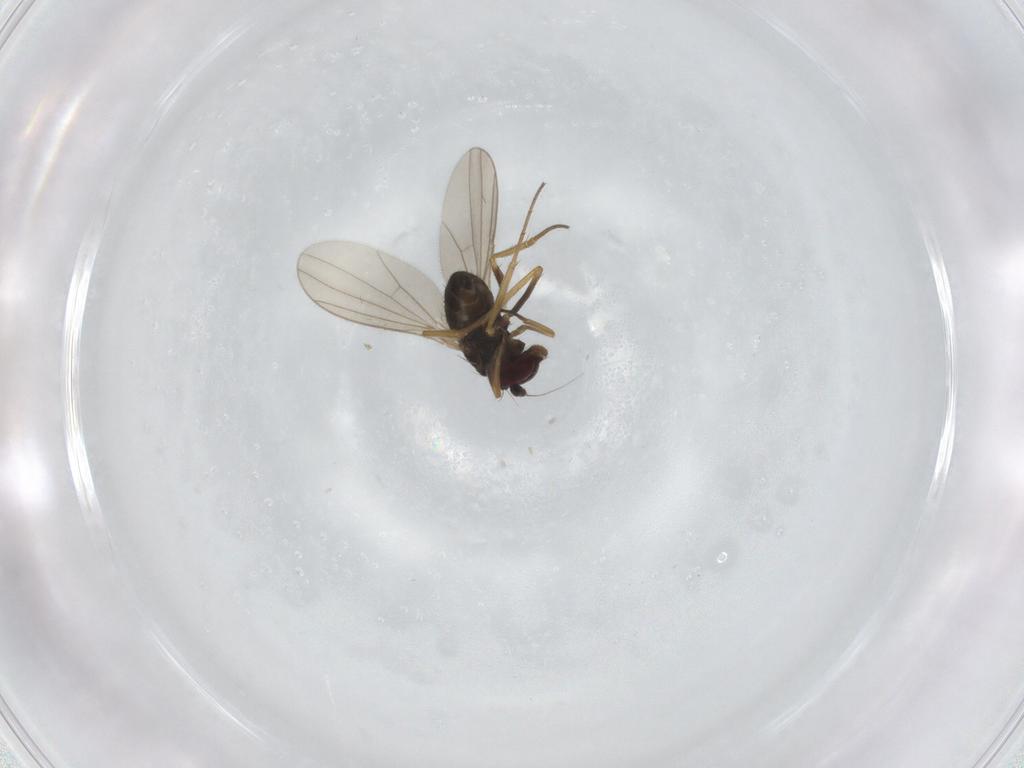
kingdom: Animalia
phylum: Arthropoda
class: Insecta
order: Diptera
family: Dolichopodidae
